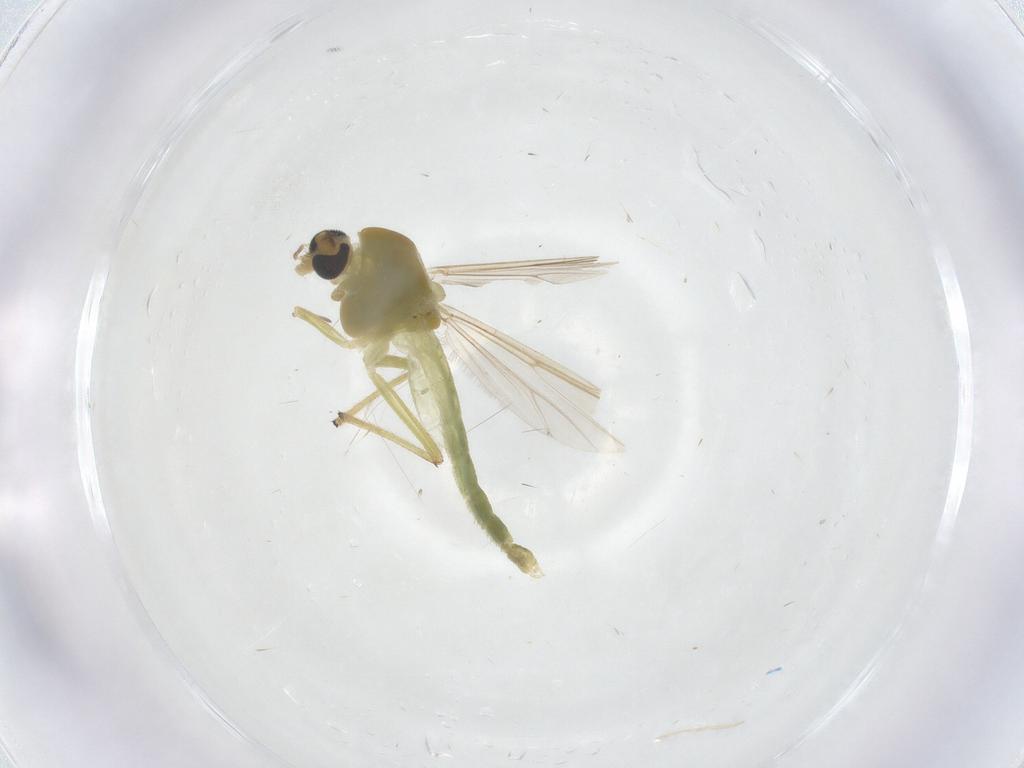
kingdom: Animalia
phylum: Arthropoda
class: Insecta
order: Diptera
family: Chironomidae
